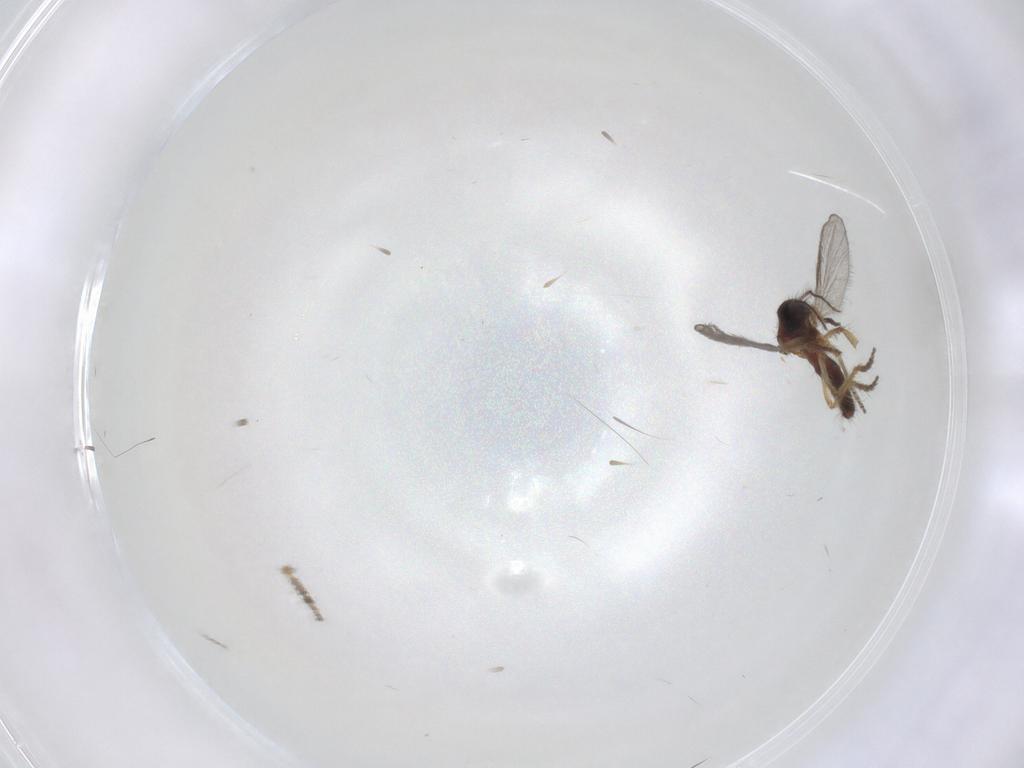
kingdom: Animalia
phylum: Arthropoda
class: Insecta
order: Diptera
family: Ceratopogonidae
